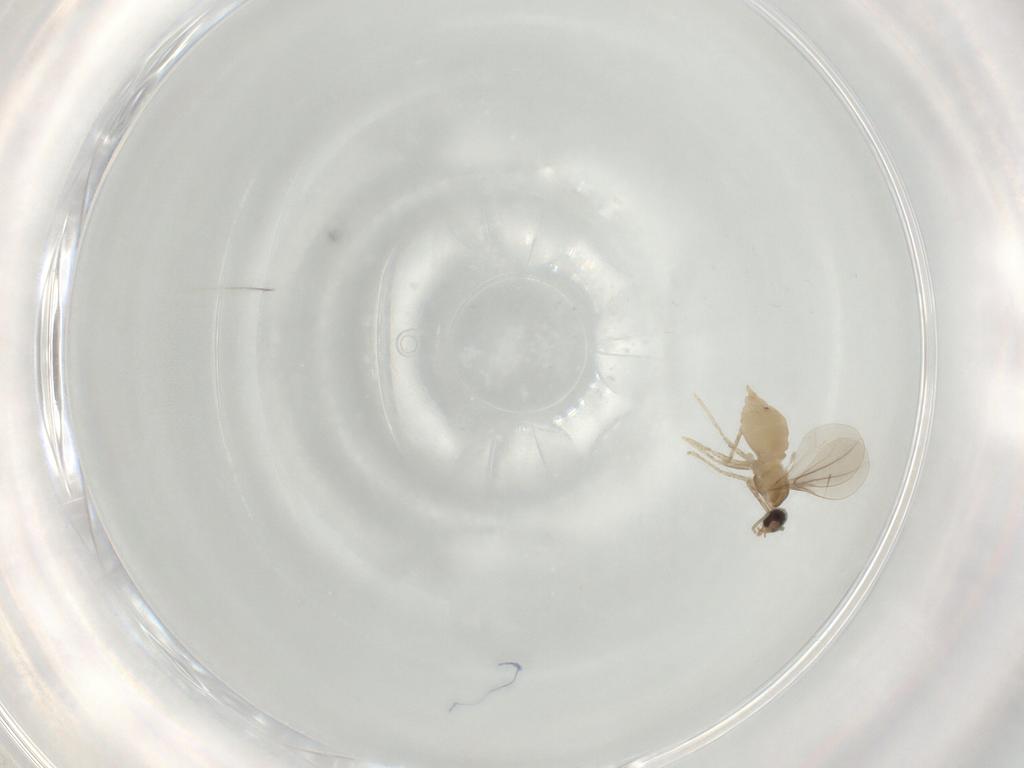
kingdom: Animalia
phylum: Arthropoda
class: Insecta
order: Diptera
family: Cecidomyiidae
